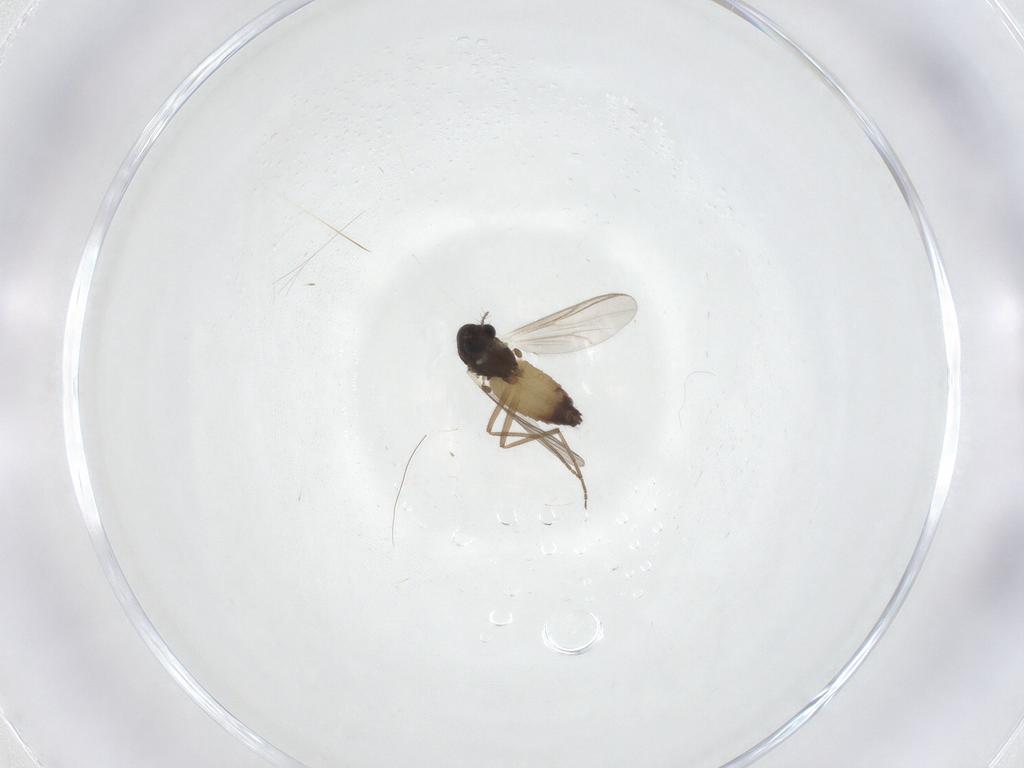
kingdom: Animalia
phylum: Arthropoda
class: Insecta
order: Diptera
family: Chironomidae
